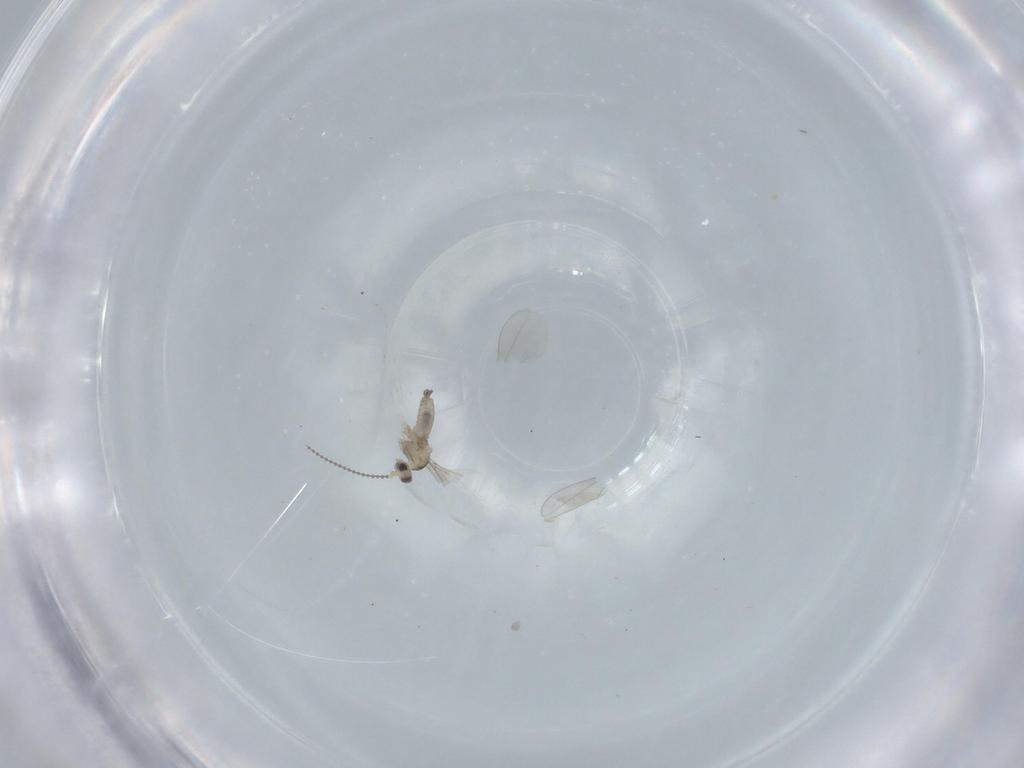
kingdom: Animalia
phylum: Arthropoda
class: Insecta
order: Diptera
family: Cecidomyiidae
